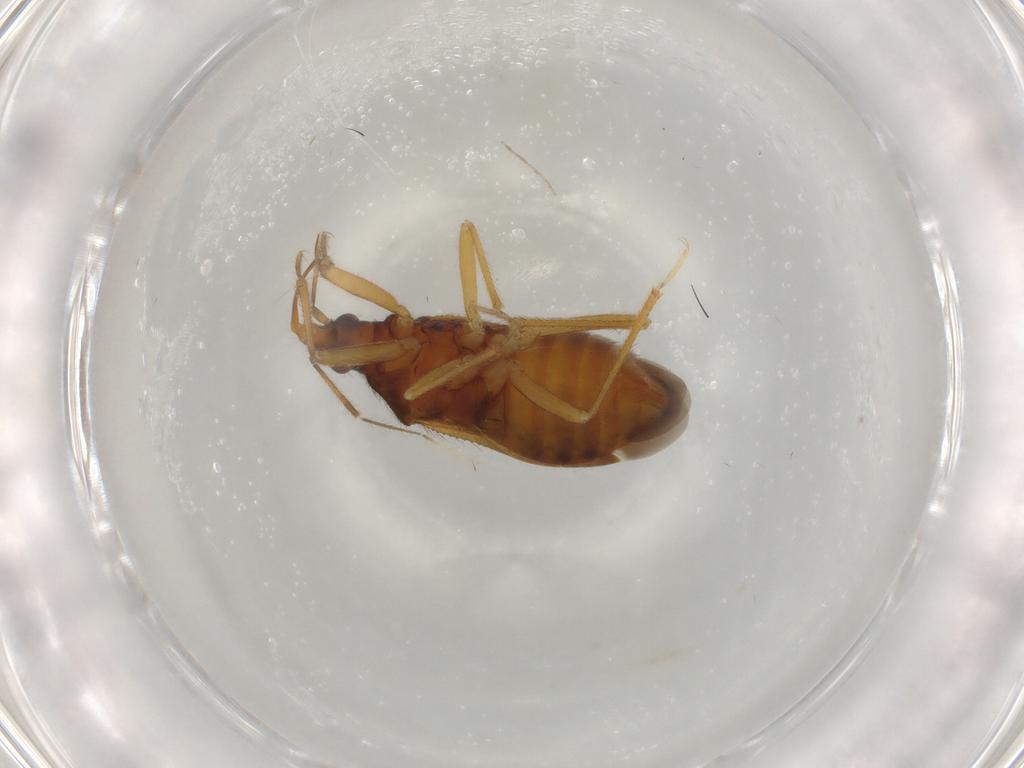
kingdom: Animalia
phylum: Arthropoda
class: Insecta
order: Hemiptera
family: Anthocoridae
